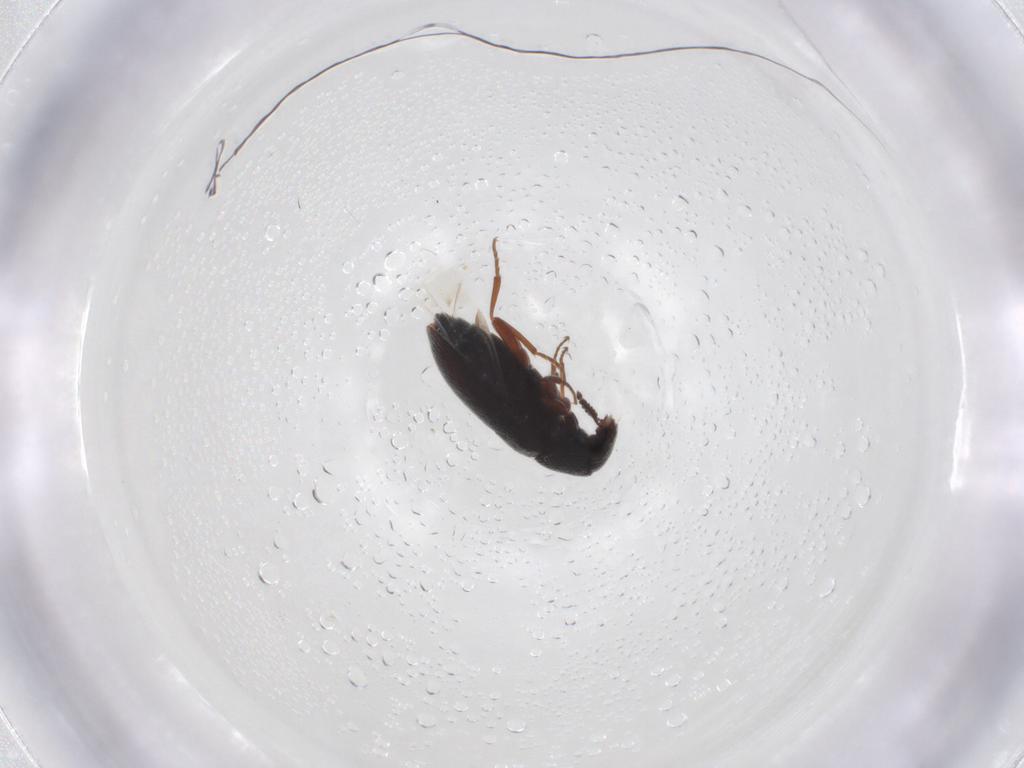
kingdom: Animalia
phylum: Arthropoda
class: Insecta
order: Coleoptera
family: Rhadalidae
